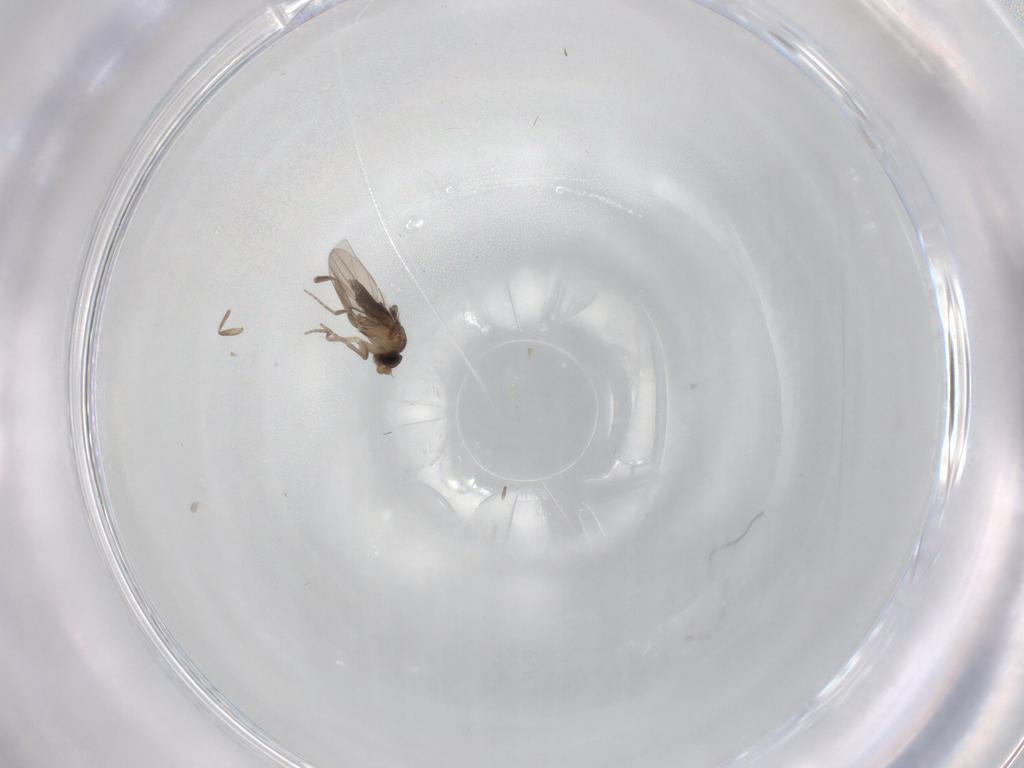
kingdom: Animalia
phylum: Arthropoda
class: Insecta
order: Diptera
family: Phoridae
